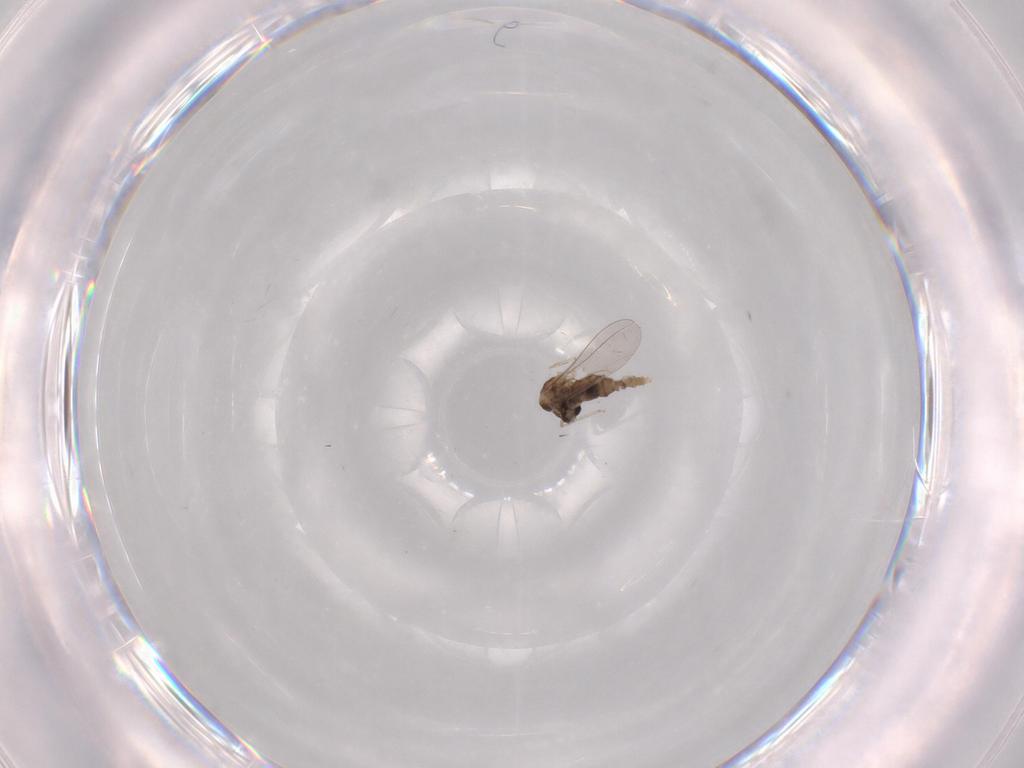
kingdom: Animalia
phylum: Arthropoda
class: Insecta
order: Diptera
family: Chironomidae
